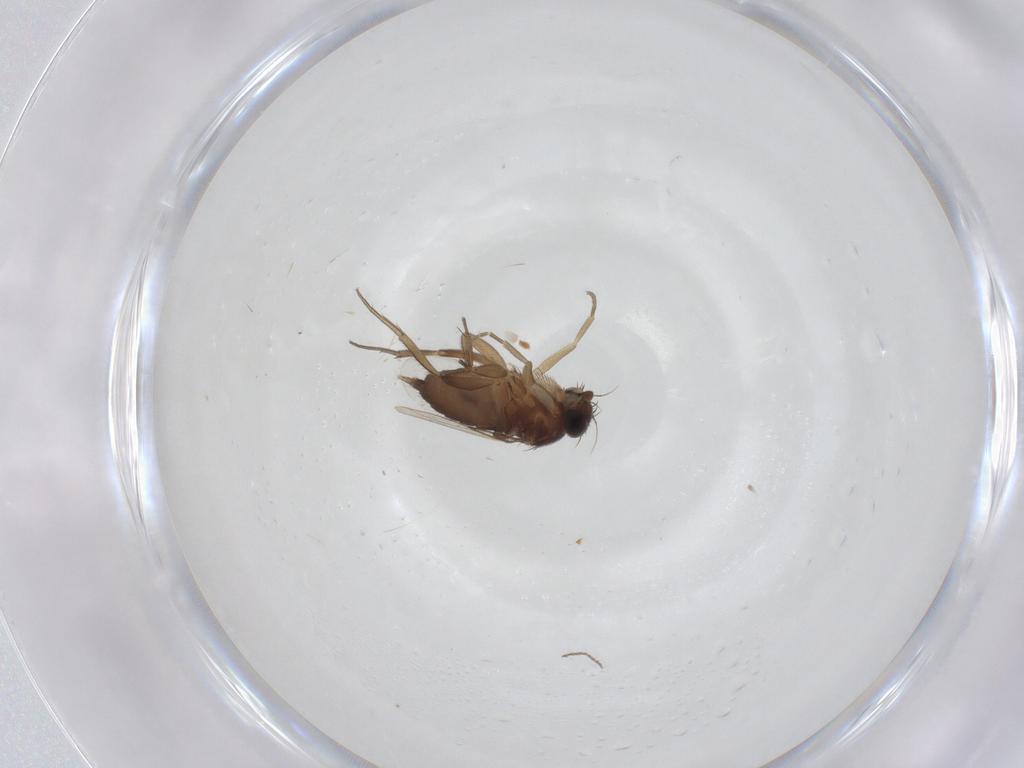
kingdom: Animalia
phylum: Arthropoda
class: Insecta
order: Diptera
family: Phoridae
